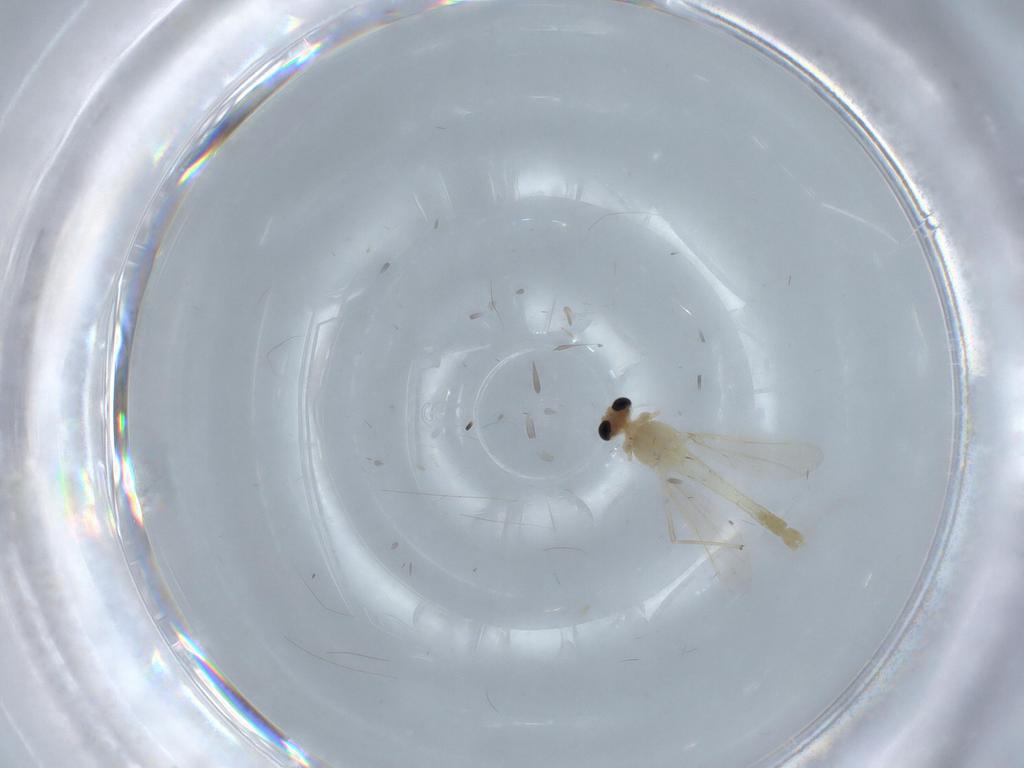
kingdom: Animalia
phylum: Arthropoda
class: Insecta
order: Diptera
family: Chironomidae
